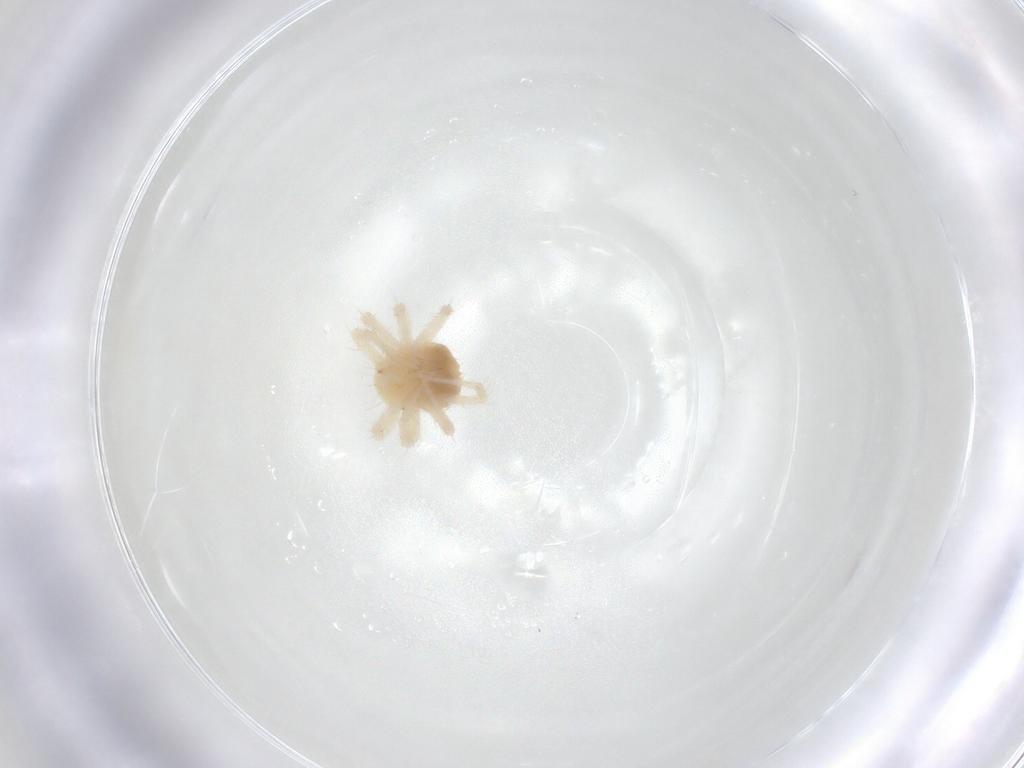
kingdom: Animalia
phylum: Arthropoda
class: Arachnida
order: Trombidiformes
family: Anystidae
